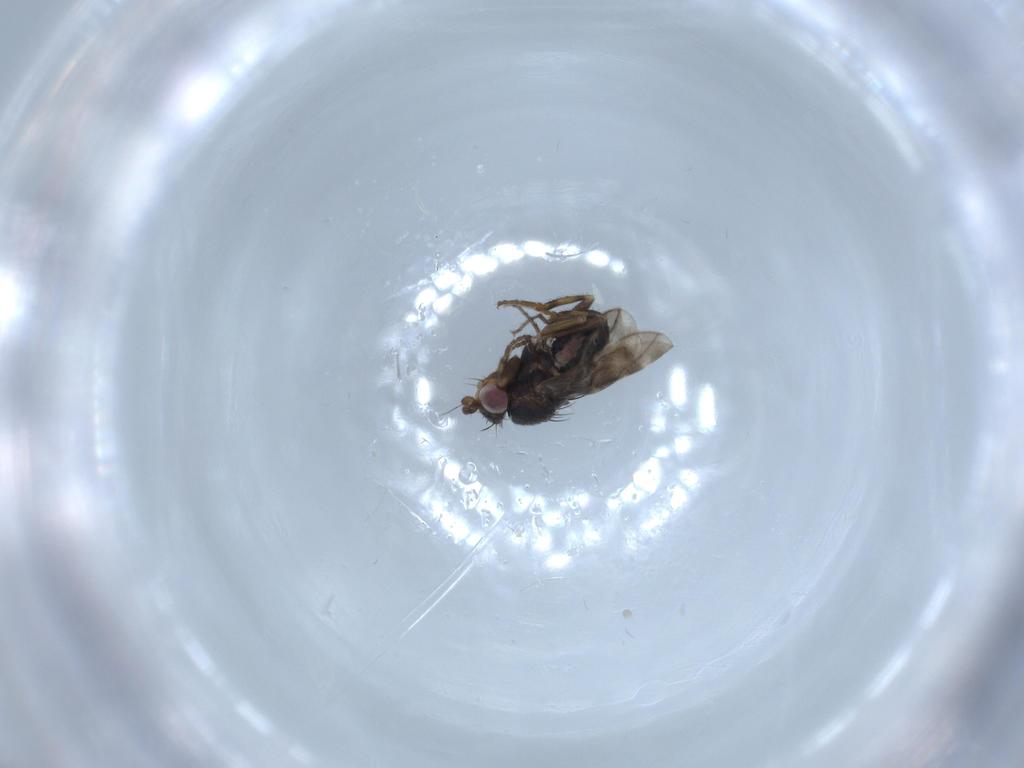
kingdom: Animalia
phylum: Arthropoda
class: Insecta
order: Diptera
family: Sphaeroceridae
